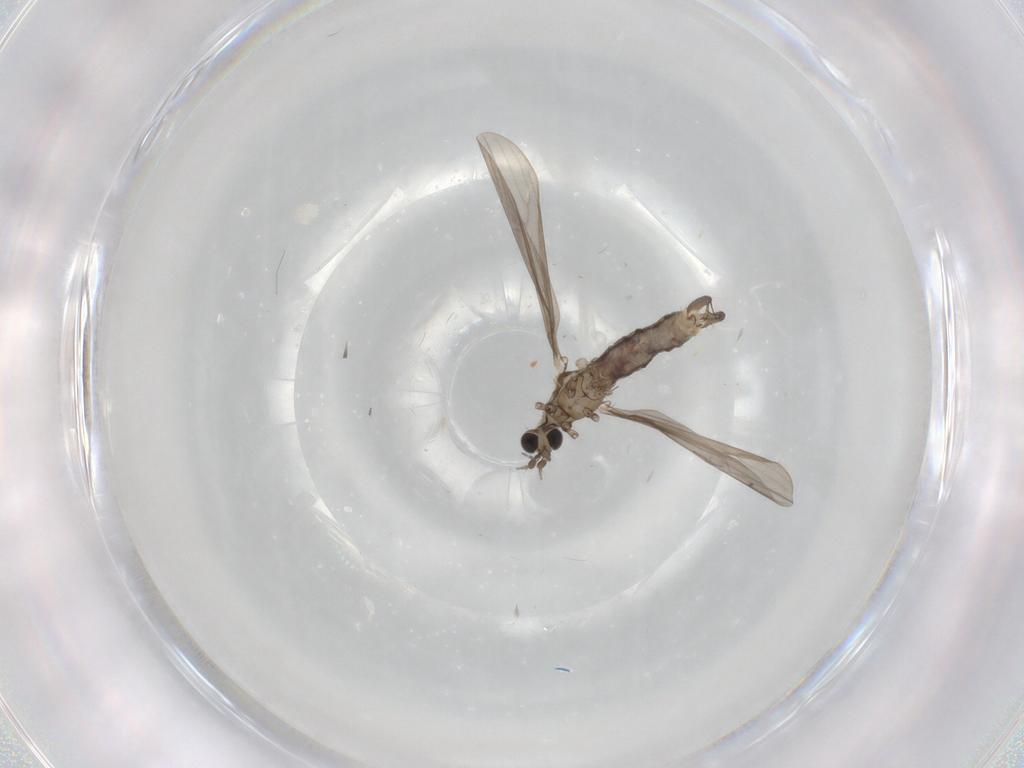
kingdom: Animalia
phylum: Arthropoda
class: Insecta
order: Diptera
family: Limoniidae
